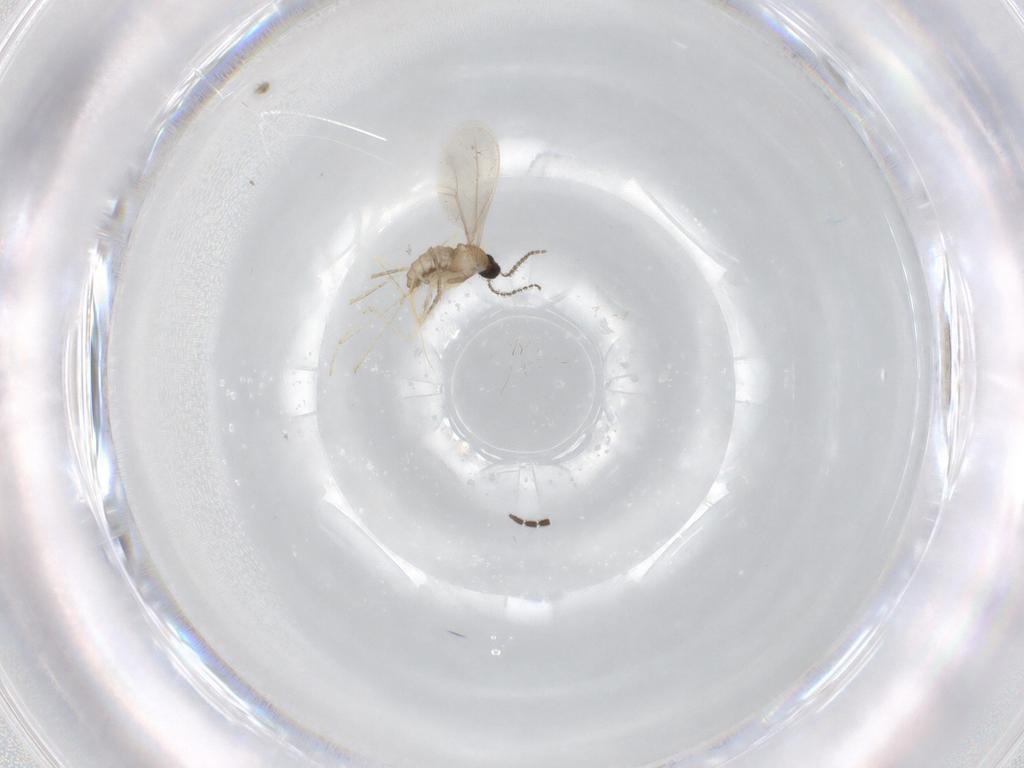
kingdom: Animalia
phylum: Arthropoda
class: Insecta
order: Diptera
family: Cecidomyiidae
